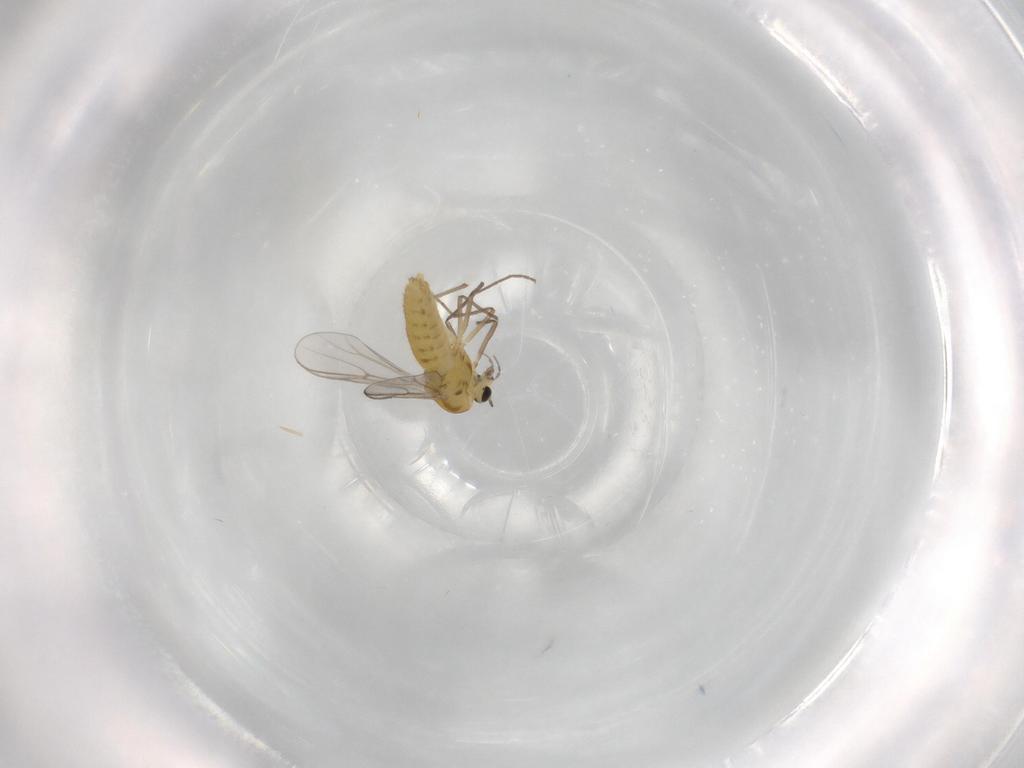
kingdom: Animalia
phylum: Arthropoda
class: Insecta
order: Diptera
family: Chironomidae
